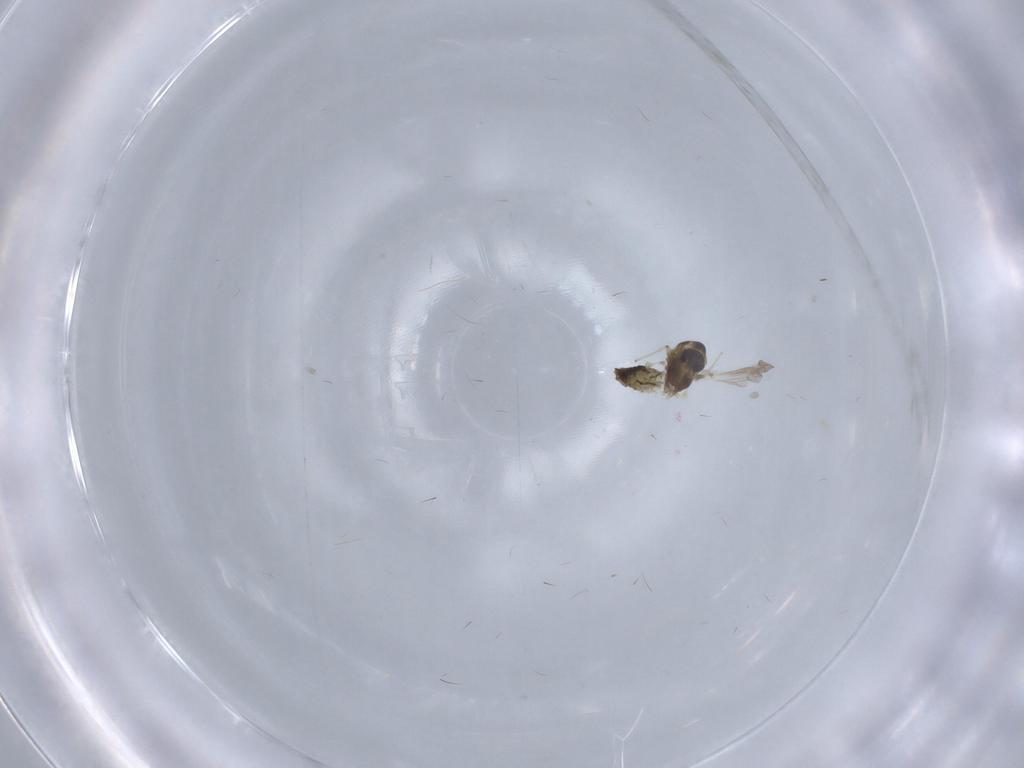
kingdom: Animalia
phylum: Arthropoda
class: Insecta
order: Diptera
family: Chironomidae
